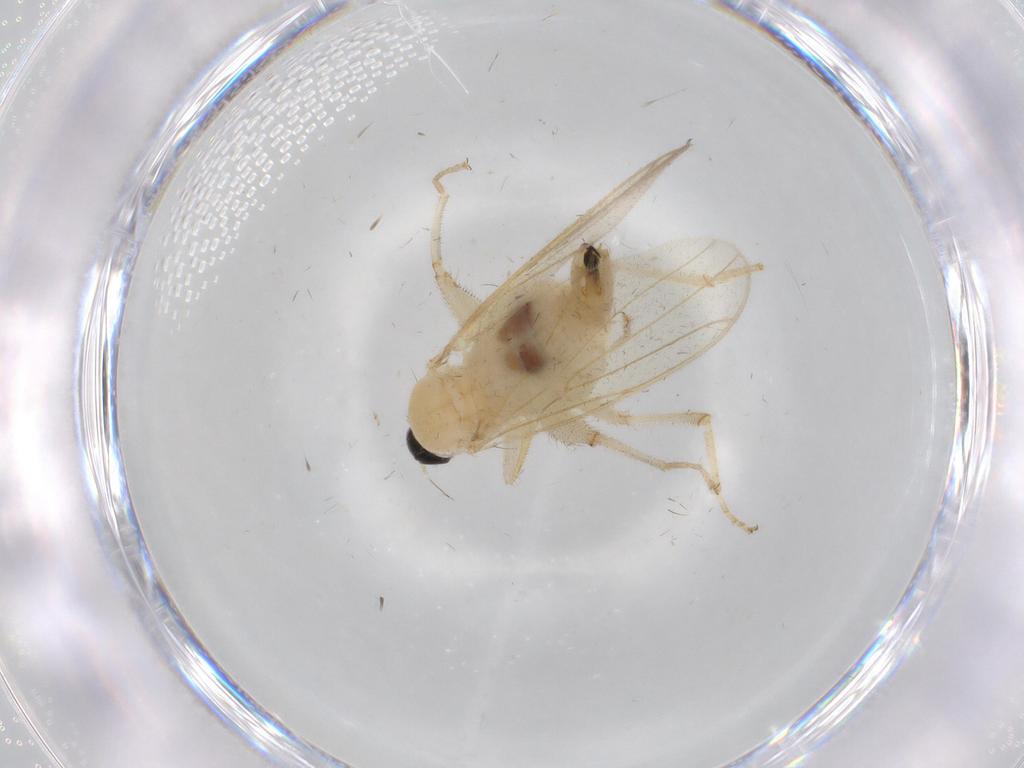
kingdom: Animalia
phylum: Arthropoda
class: Insecta
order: Diptera
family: Hybotidae
